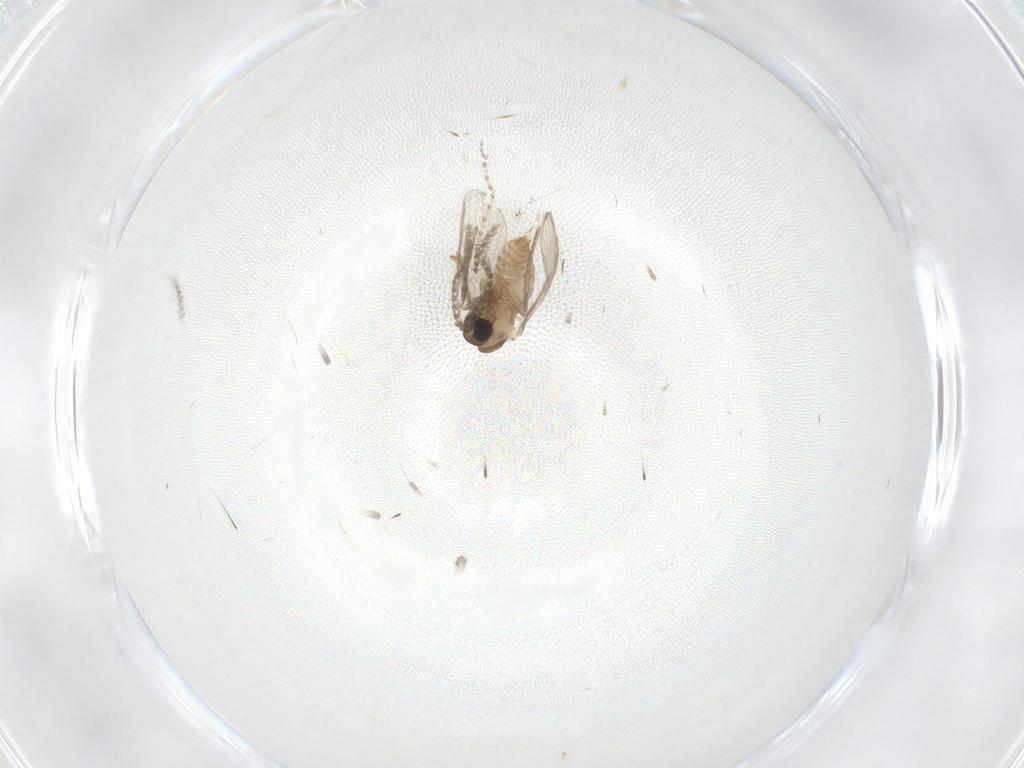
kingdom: Animalia
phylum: Arthropoda
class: Insecta
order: Diptera
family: Psychodidae
